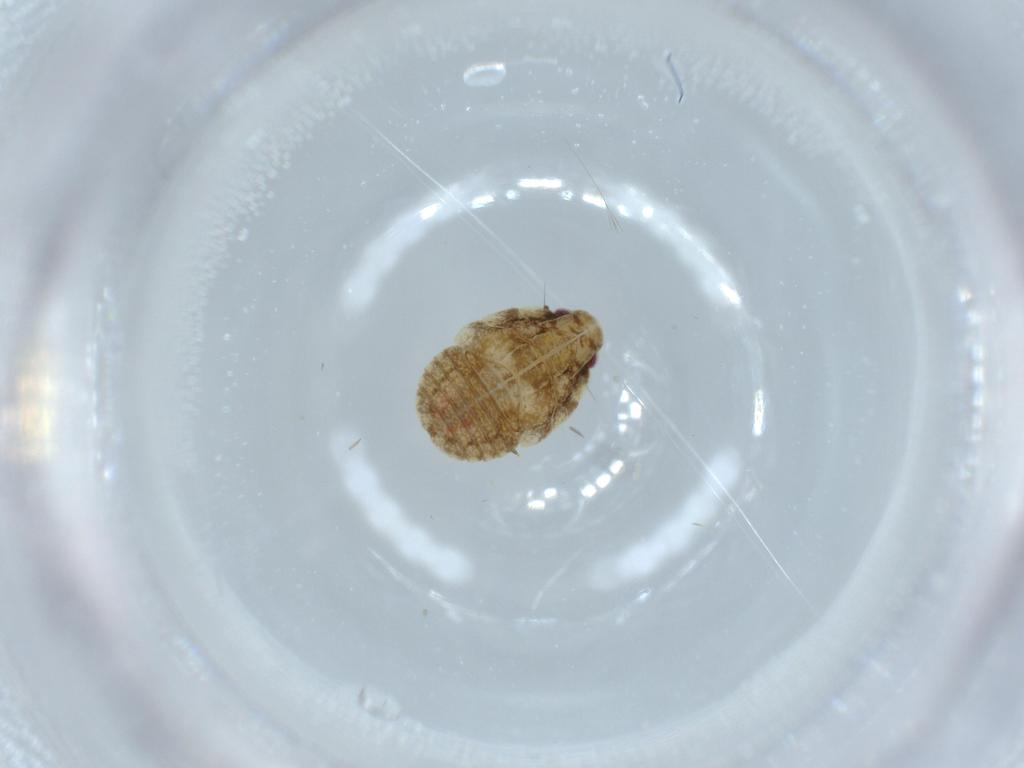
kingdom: Animalia
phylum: Arthropoda
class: Insecta
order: Hemiptera
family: Flatidae
